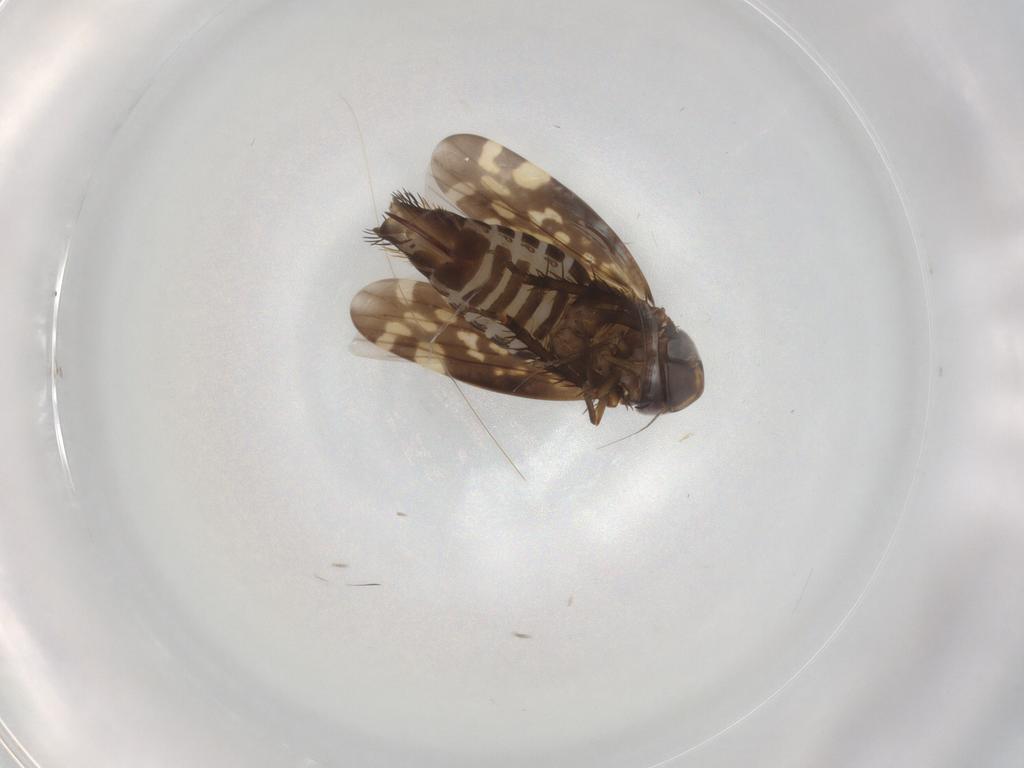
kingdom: Animalia
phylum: Arthropoda
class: Insecta
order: Hemiptera
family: Cicadellidae
